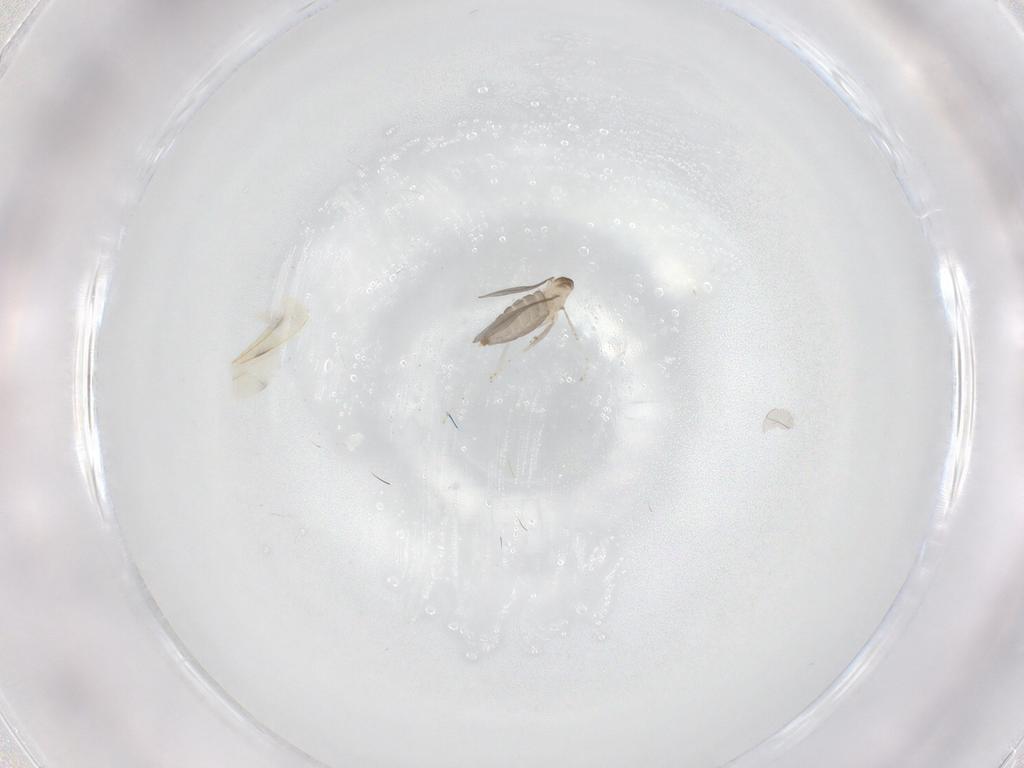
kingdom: Animalia
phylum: Arthropoda
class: Insecta
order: Diptera
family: Cecidomyiidae
